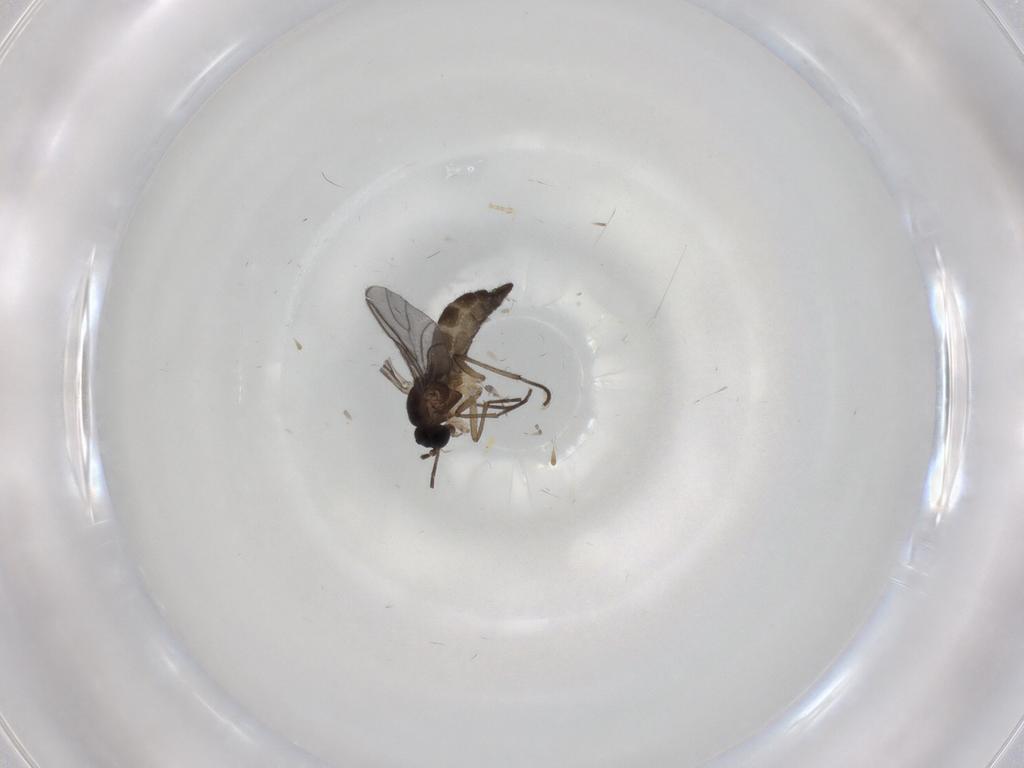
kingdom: Animalia
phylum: Arthropoda
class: Insecta
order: Diptera
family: Sciaridae
